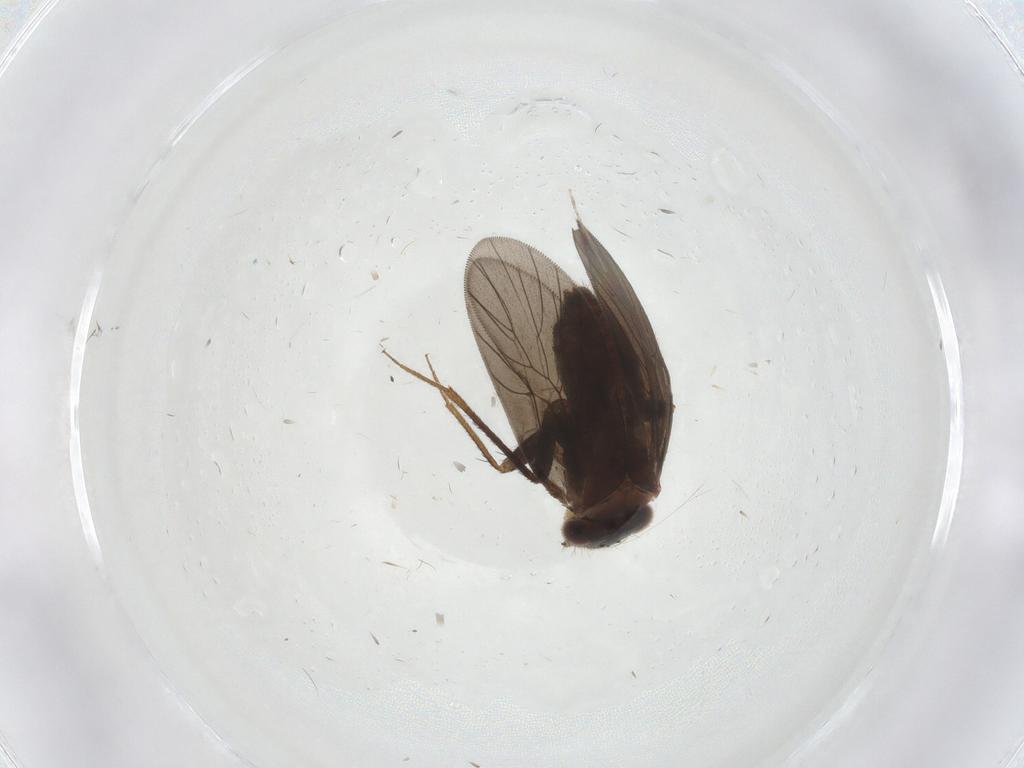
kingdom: Animalia
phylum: Arthropoda
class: Insecta
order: Psocodea
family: Lepidopsocidae
